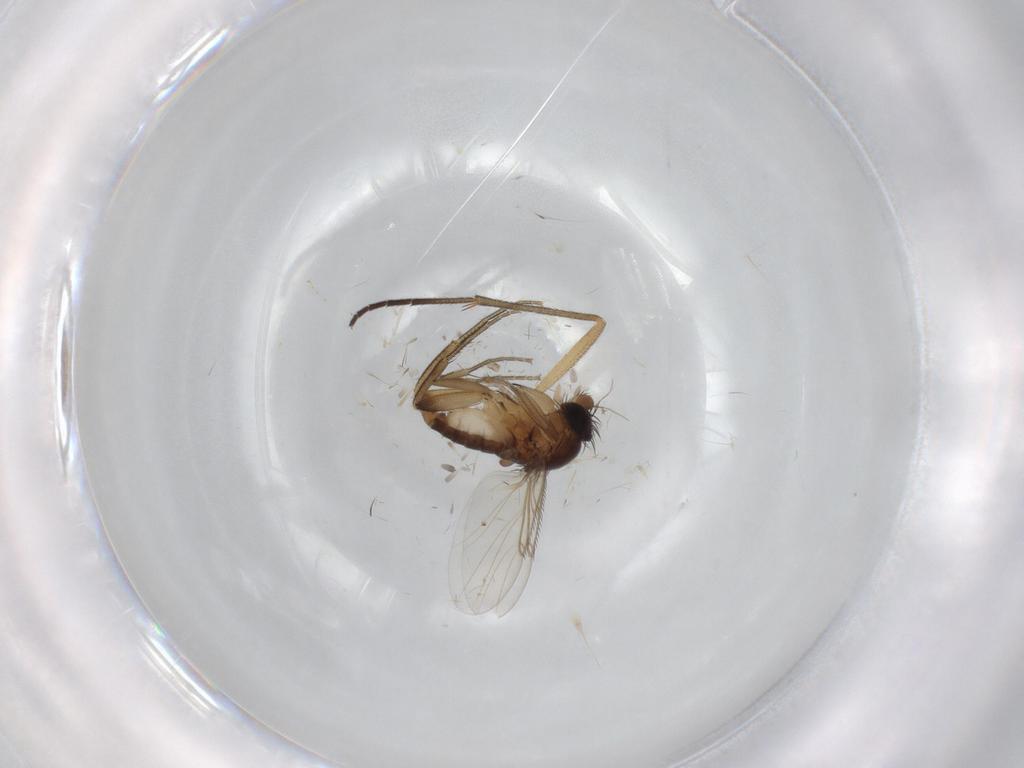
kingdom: Animalia
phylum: Arthropoda
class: Insecta
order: Diptera
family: Phoridae
